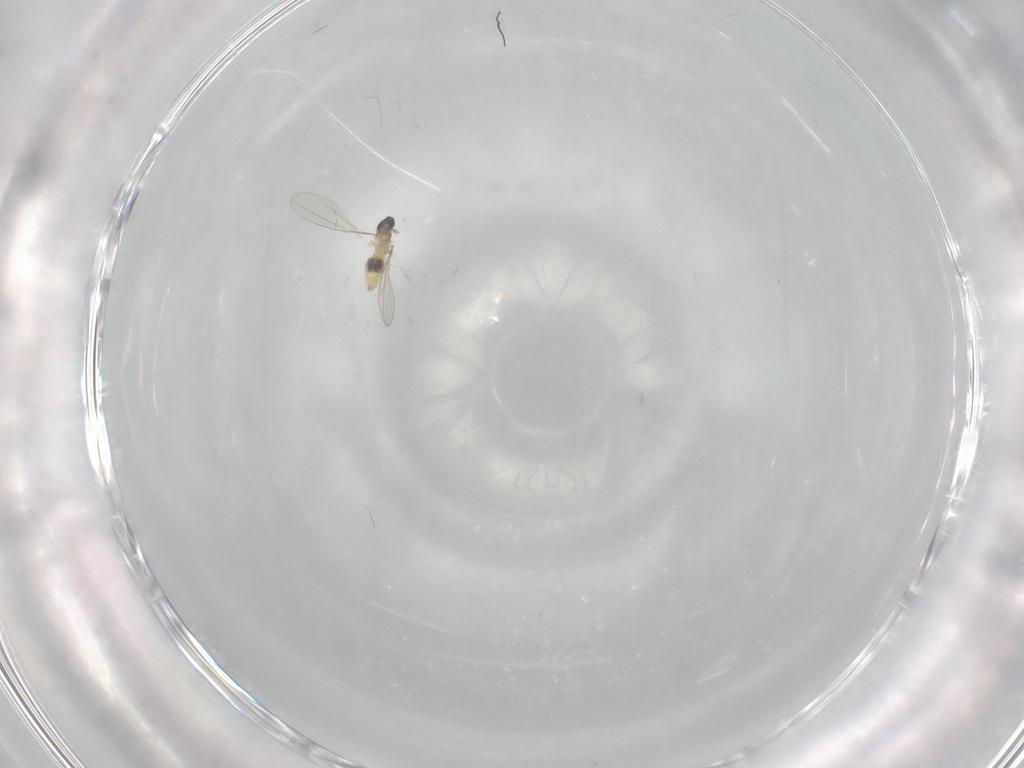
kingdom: Animalia
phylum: Arthropoda
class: Insecta
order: Diptera
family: Cecidomyiidae
